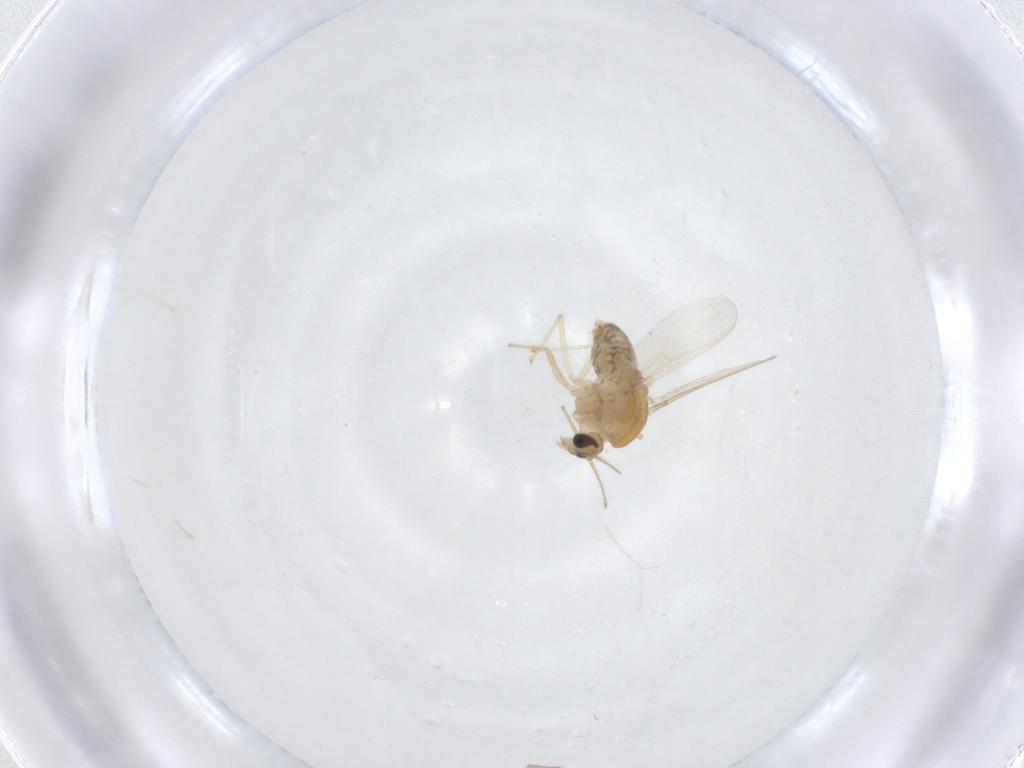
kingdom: Animalia
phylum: Arthropoda
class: Insecta
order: Diptera
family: Chironomidae
